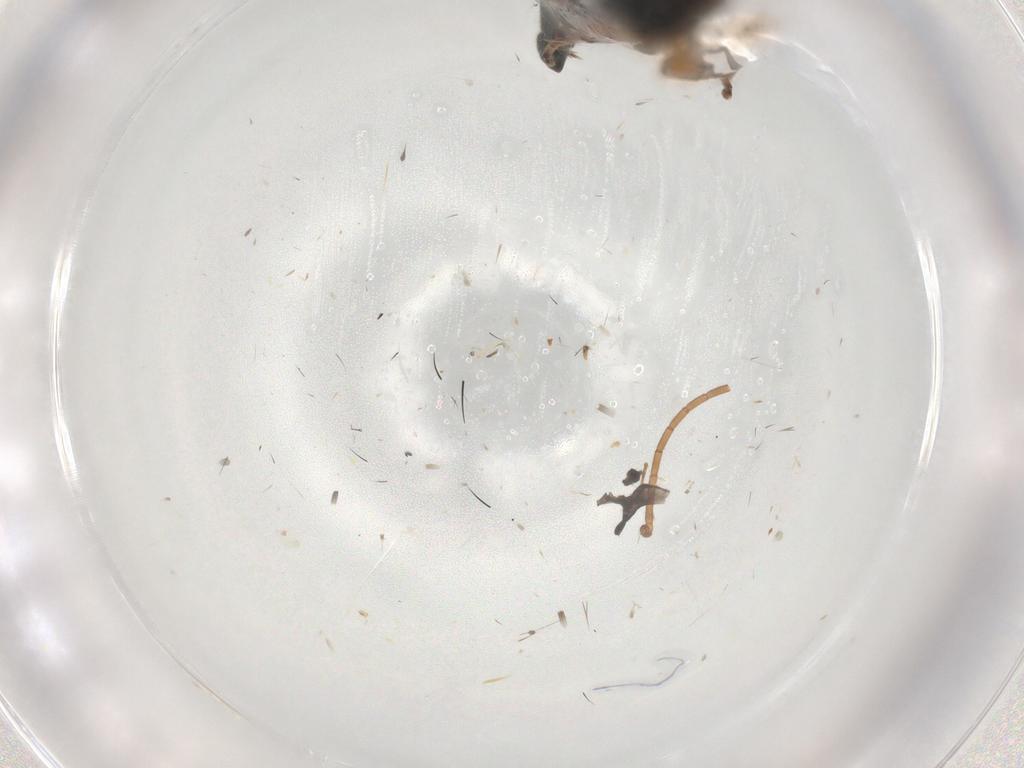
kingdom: Animalia
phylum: Arthropoda
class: Insecta
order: Hymenoptera
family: Scelionidae
